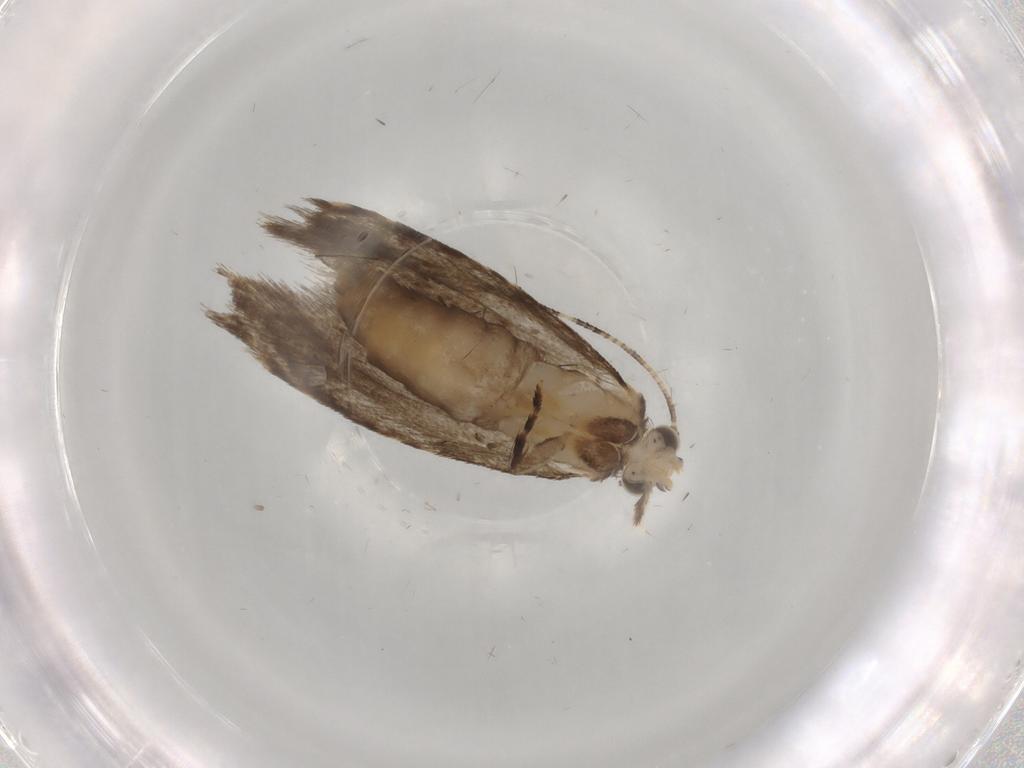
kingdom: Animalia
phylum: Arthropoda
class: Insecta
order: Lepidoptera
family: Tineidae
